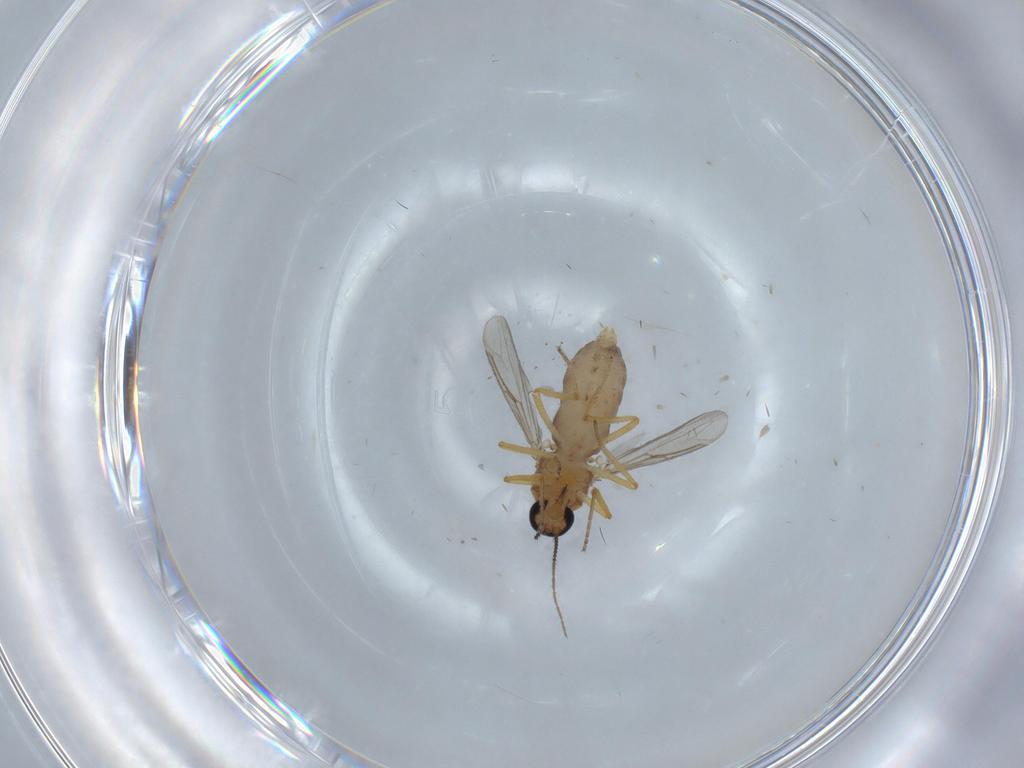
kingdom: Animalia
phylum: Arthropoda
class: Insecta
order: Diptera
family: Ceratopogonidae
